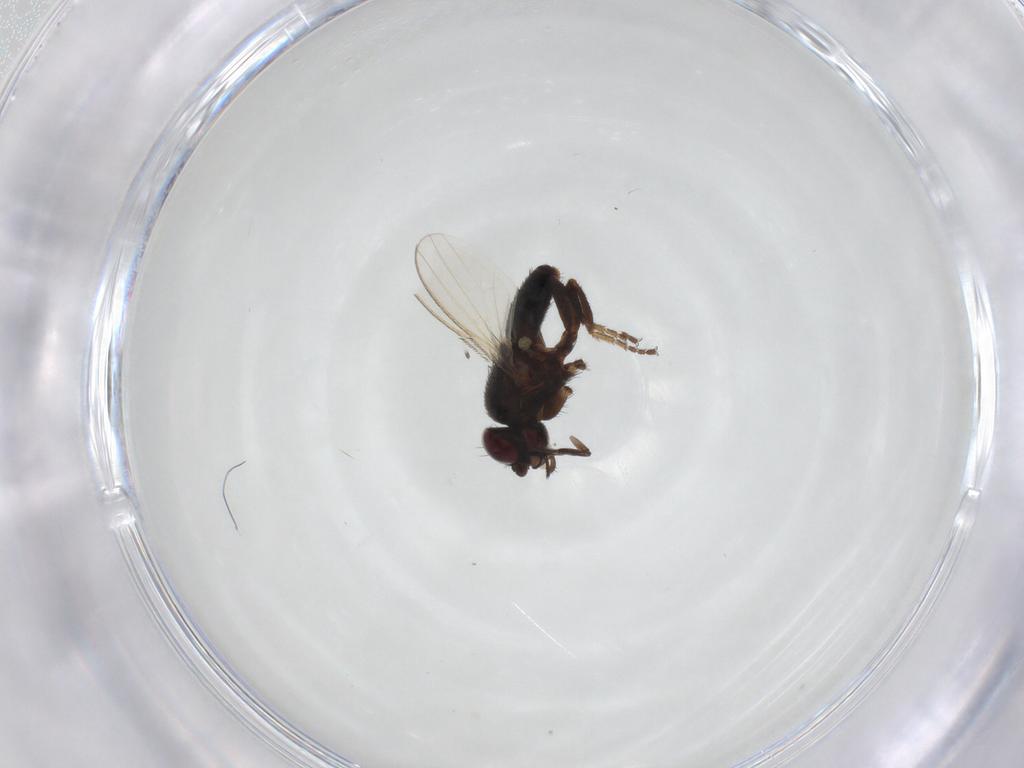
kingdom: Animalia
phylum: Arthropoda
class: Insecta
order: Diptera
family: Milichiidae
